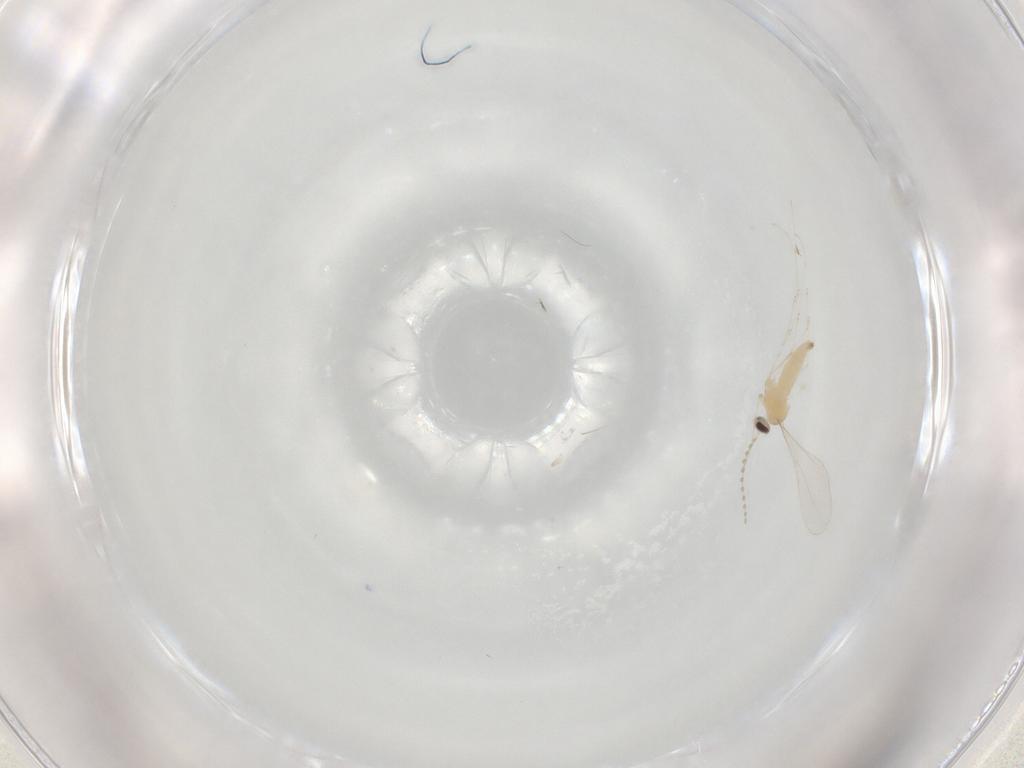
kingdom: Animalia
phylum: Arthropoda
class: Insecta
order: Diptera
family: Cecidomyiidae
